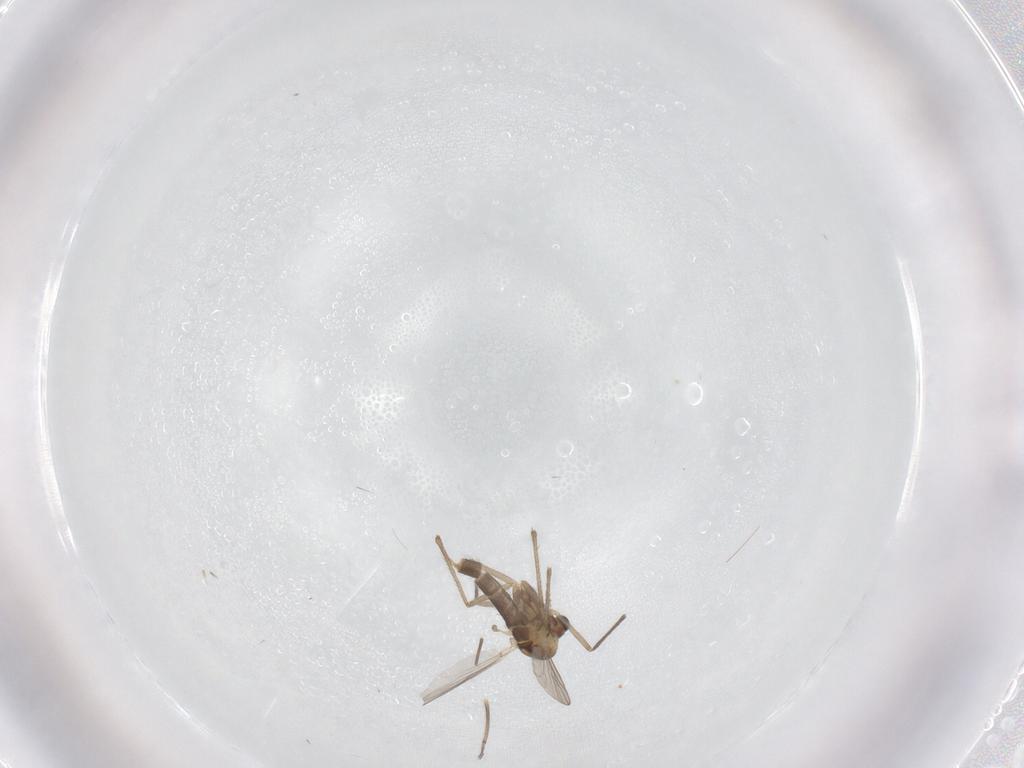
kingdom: Animalia
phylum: Arthropoda
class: Insecta
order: Diptera
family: Chironomidae
